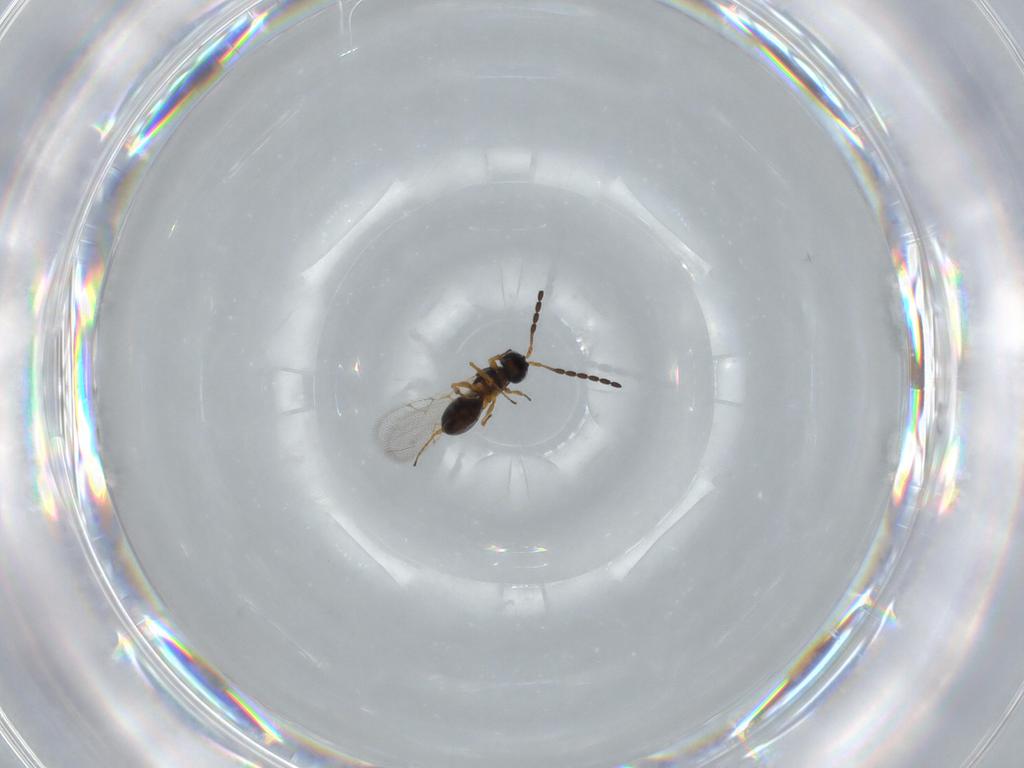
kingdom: Animalia
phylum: Arthropoda
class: Insecta
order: Hymenoptera
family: Figitidae
